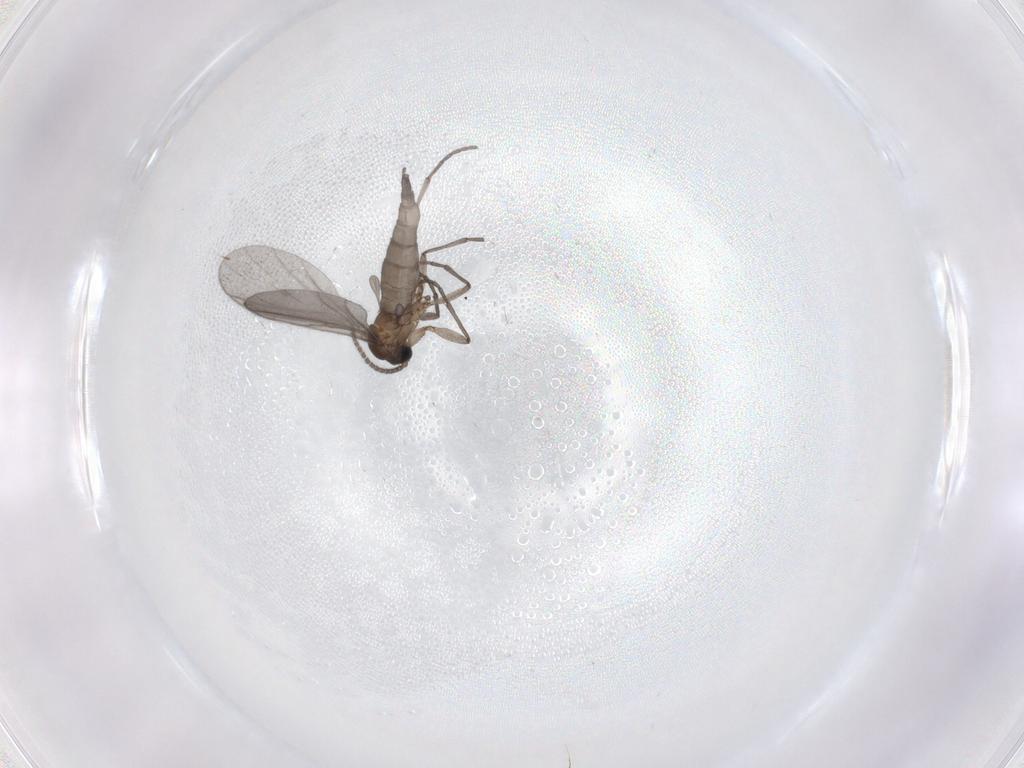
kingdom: Animalia
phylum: Arthropoda
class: Insecta
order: Diptera
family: Sciaridae
